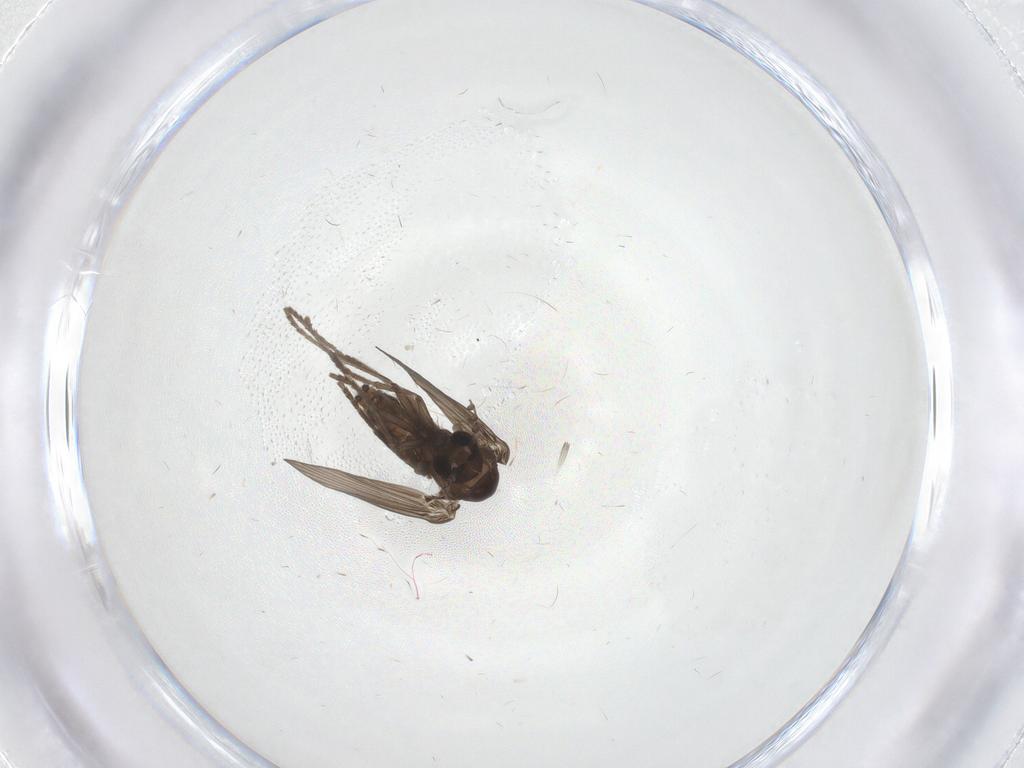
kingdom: Animalia
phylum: Arthropoda
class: Insecta
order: Diptera
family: Psychodidae
